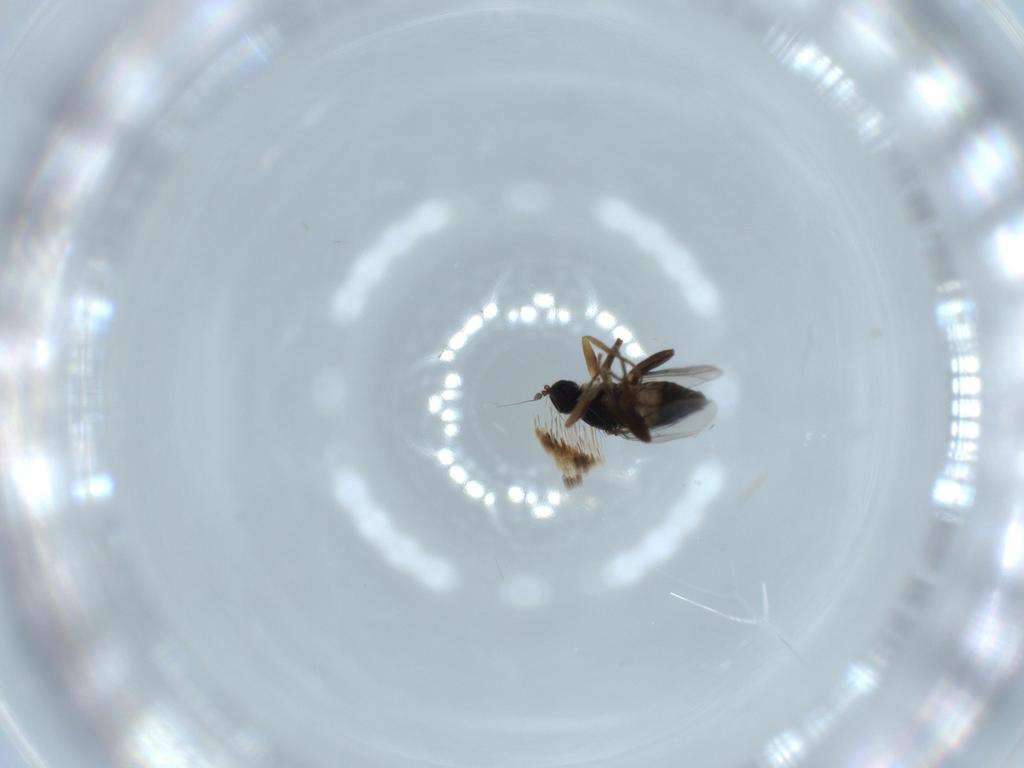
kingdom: Animalia
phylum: Arthropoda
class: Insecta
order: Diptera
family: Hybotidae
